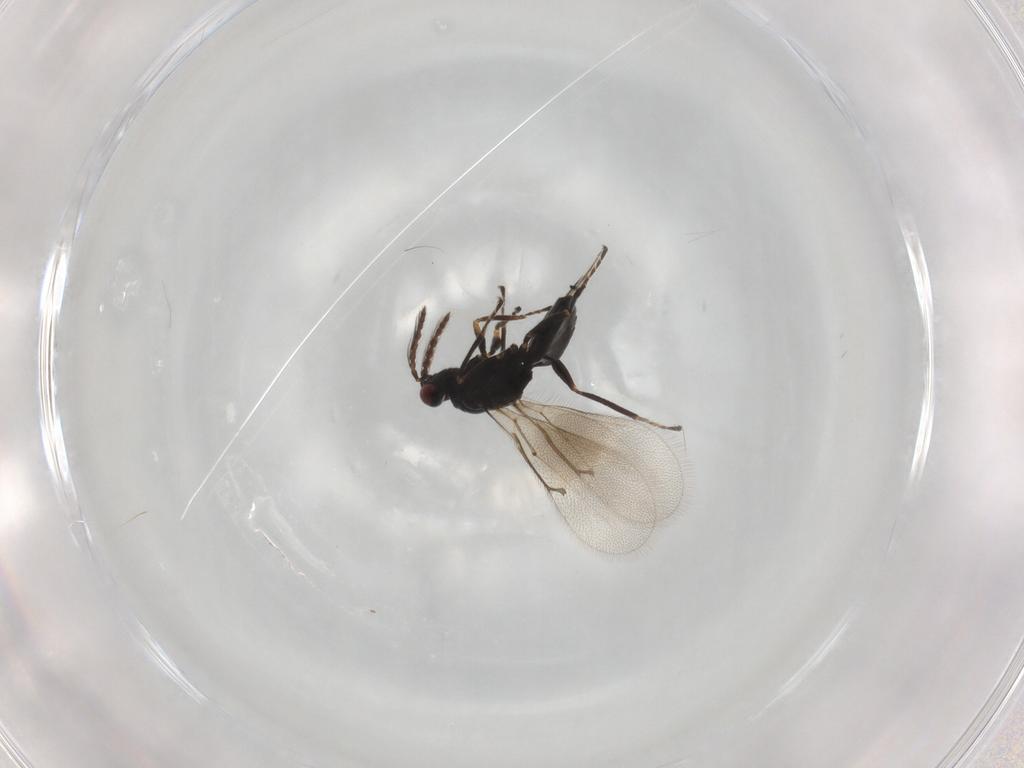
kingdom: Animalia
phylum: Arthropoda
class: Insecta
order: Hymenoptera
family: Eulophidae
